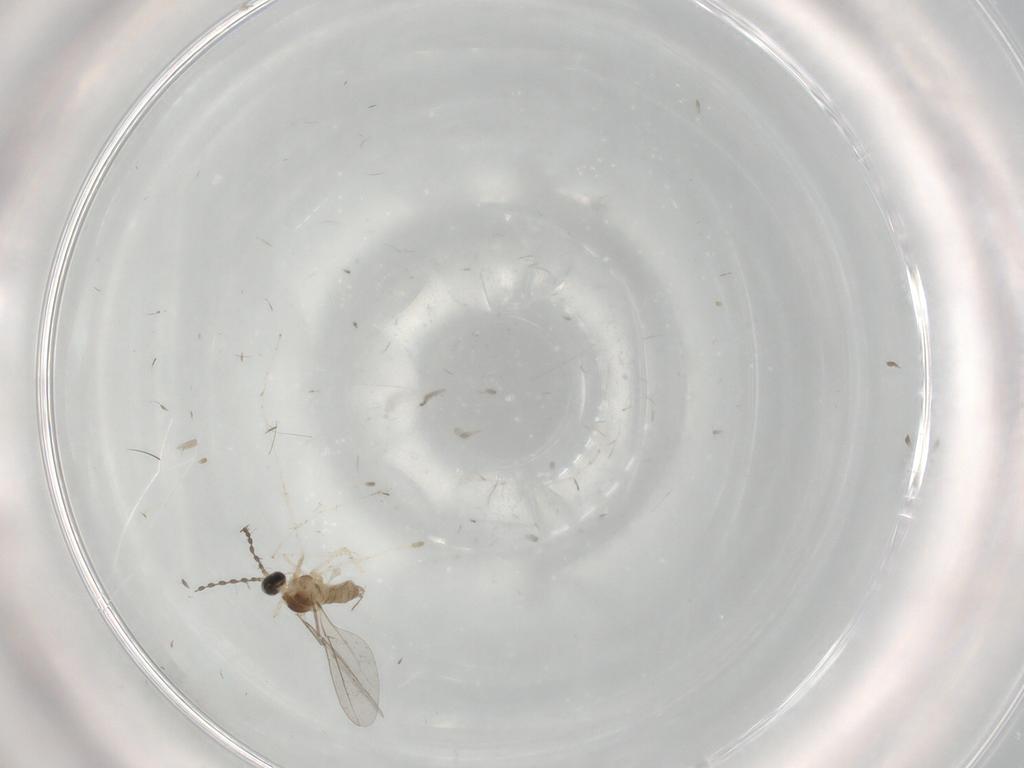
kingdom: Animalia
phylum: Arthropoda
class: Insecta
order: Diptera
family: Cecidomyiidae
